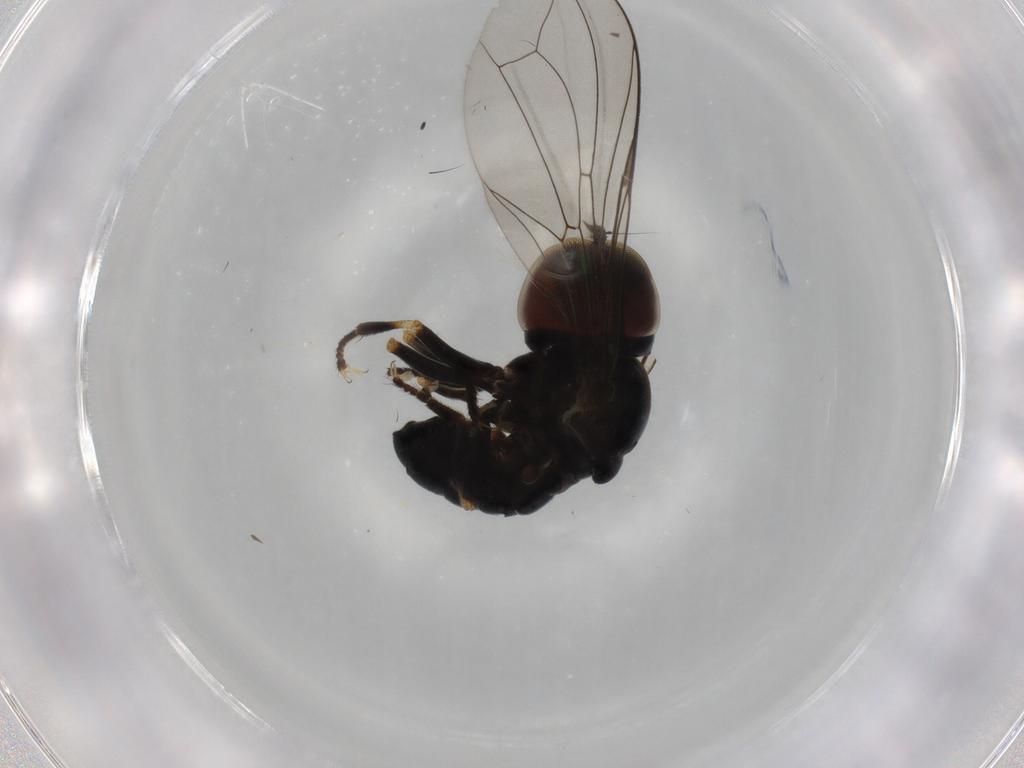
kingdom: Animalia
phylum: Arthropoda
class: Insecta
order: Diptera
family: Pipunculidae
